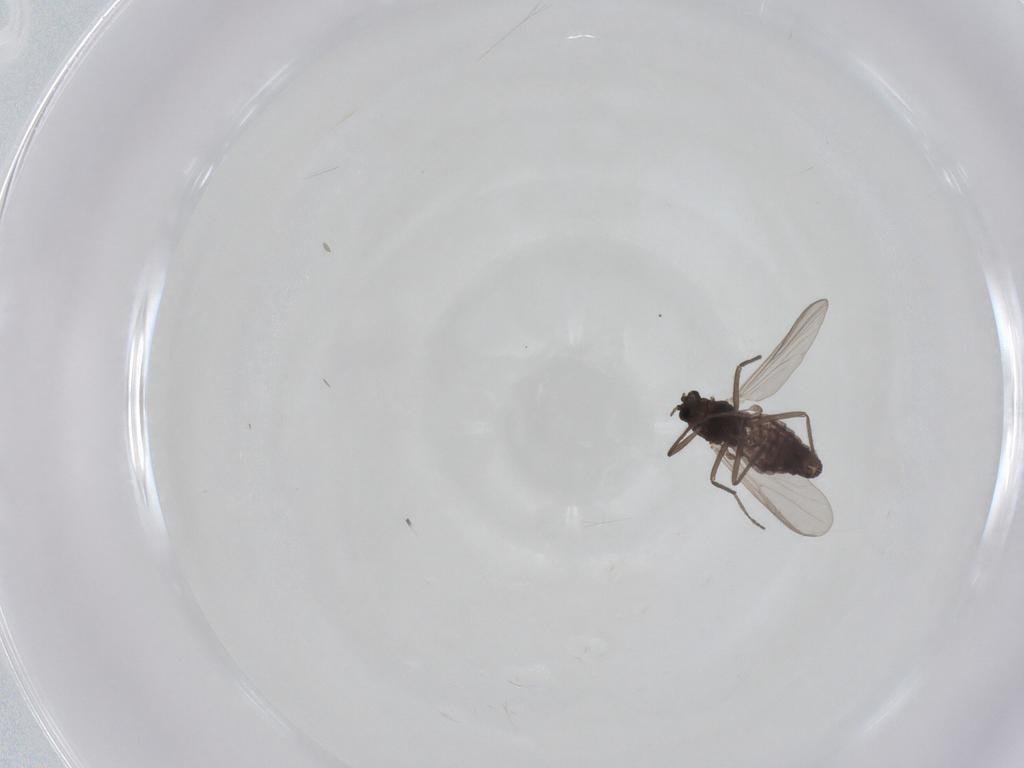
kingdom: Animalia
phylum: Arthropoda
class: Insecta
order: Diptera
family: Chironomidae
